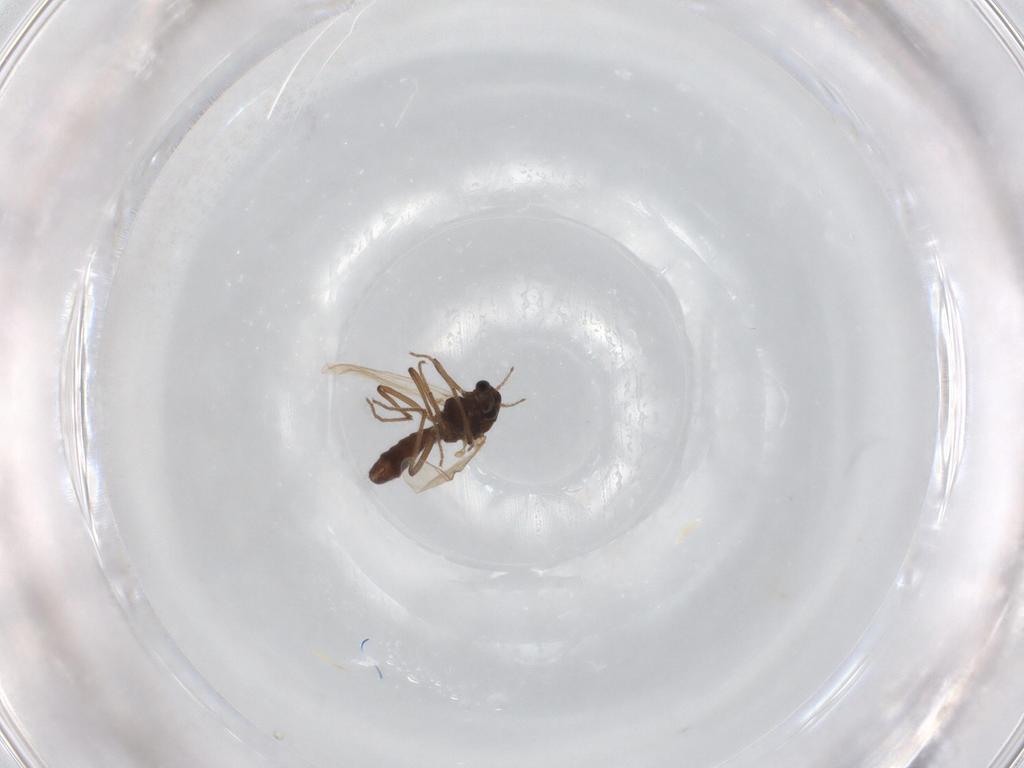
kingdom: Animalia
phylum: Arthropoda
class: Insecta
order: Diptera
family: Chironomidae
